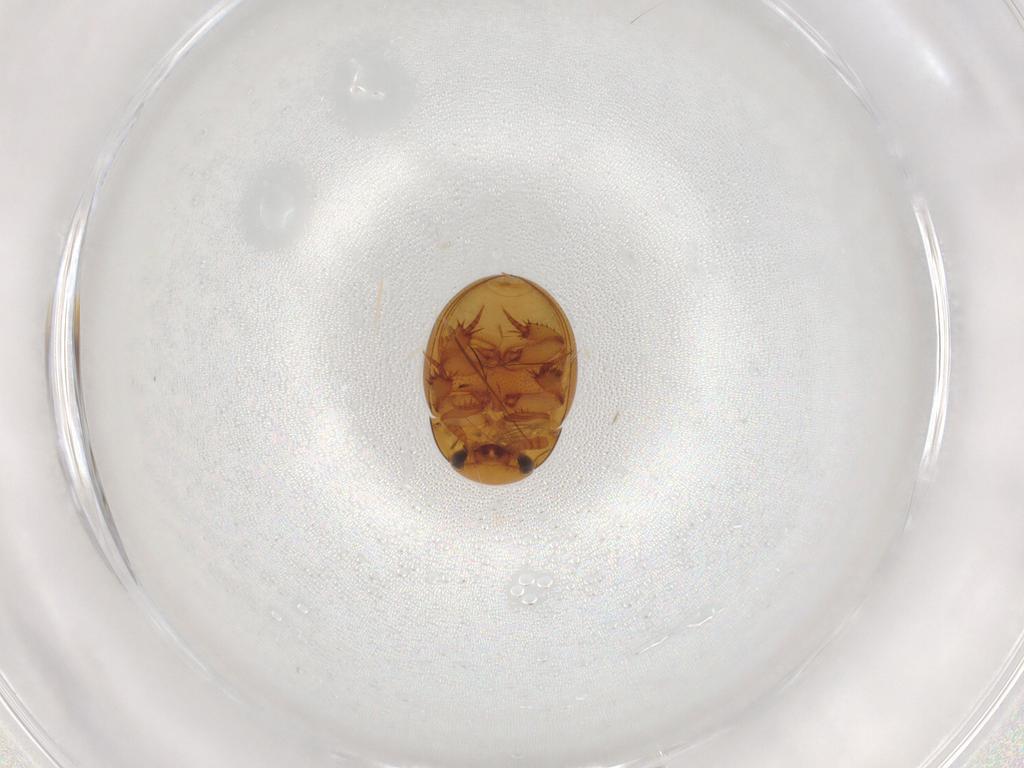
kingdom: Animalia
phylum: Arthropoda
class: Insecta
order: Coleoptera
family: Leiodidae
